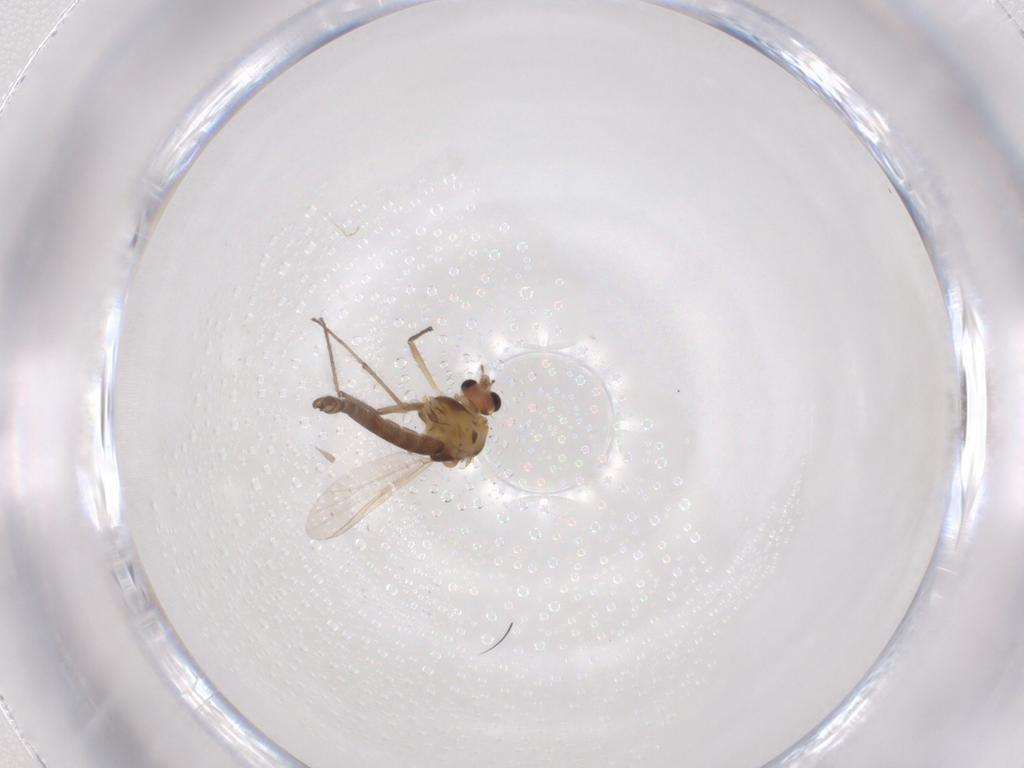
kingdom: Animalia
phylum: Arthropoda
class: Insecta
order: Diptera
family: Chironomidae
